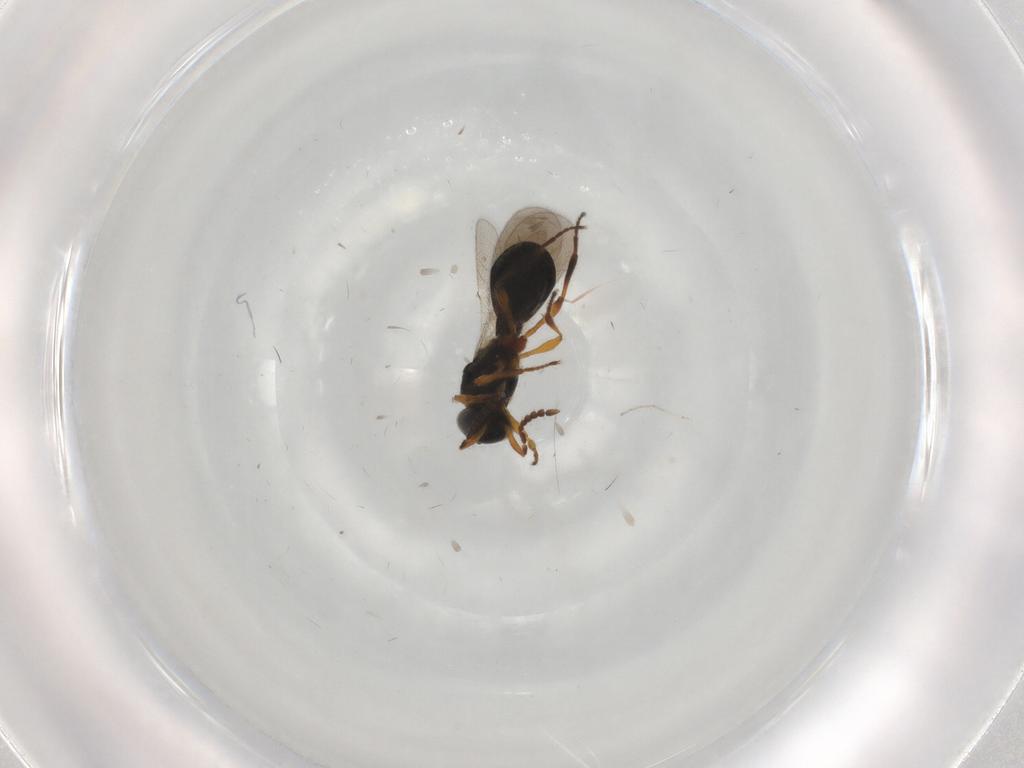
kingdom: Animalia
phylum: Arthropoda
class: Insecta
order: Hymenoptera
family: Platygastridae
